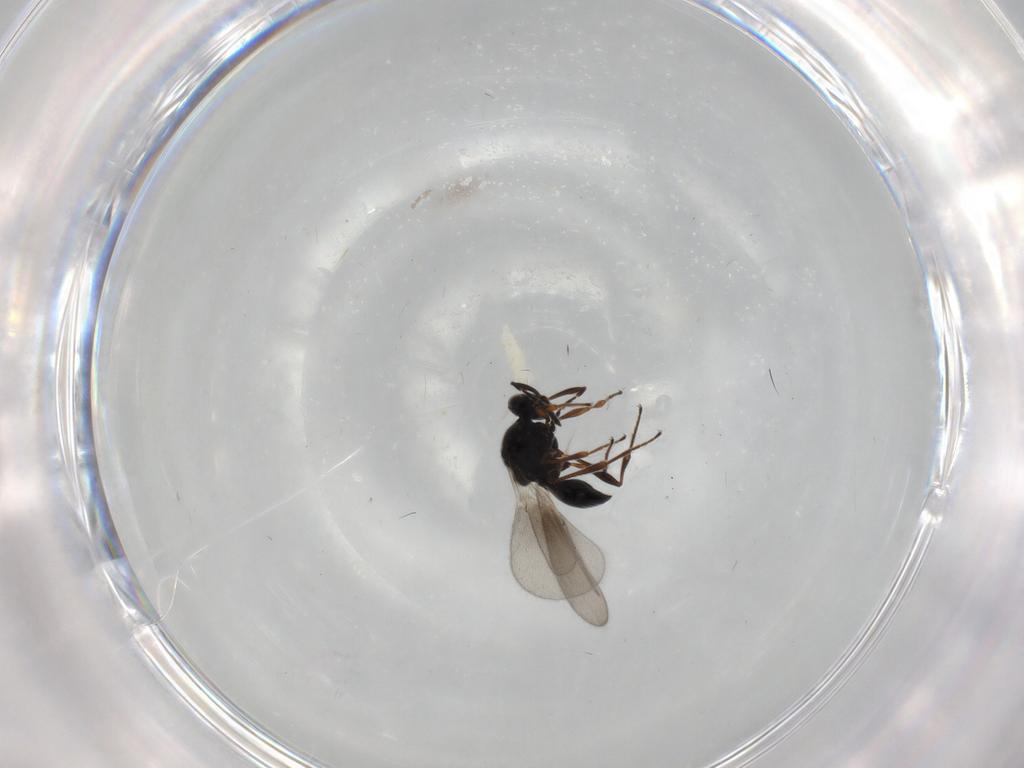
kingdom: Animalia
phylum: Arthropoda
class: Insecta
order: Hymenoptera
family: Platygastridae
